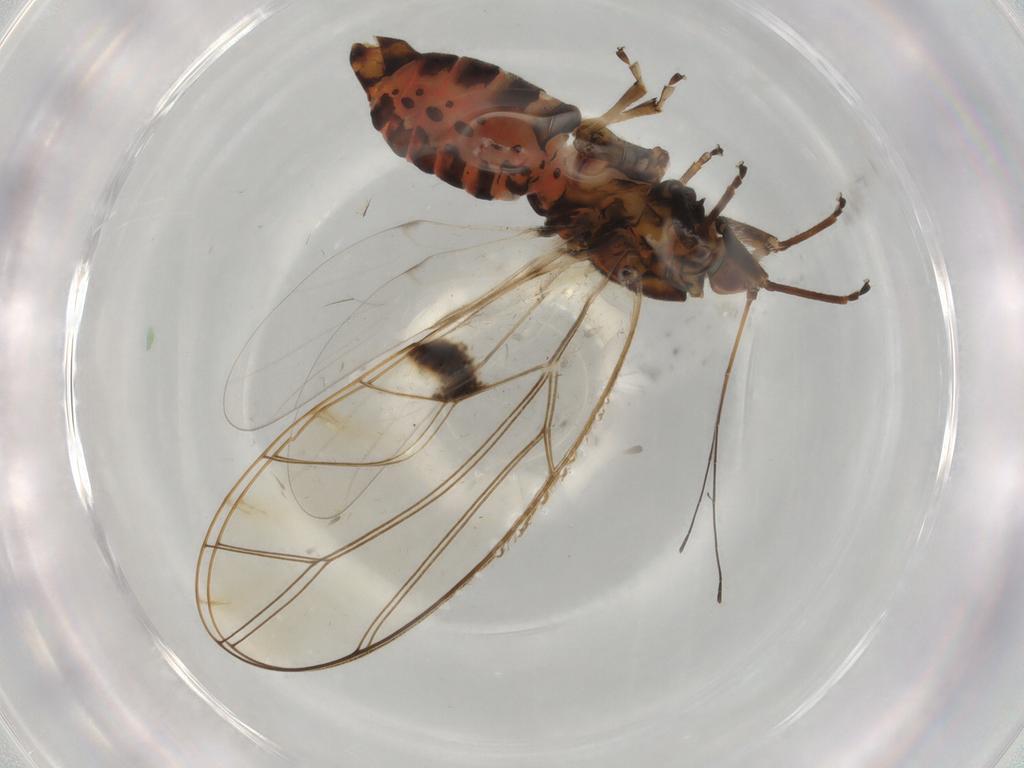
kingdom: Animalia
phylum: Arthropoda
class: Insecta
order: Hemiptera
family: Triozidae
